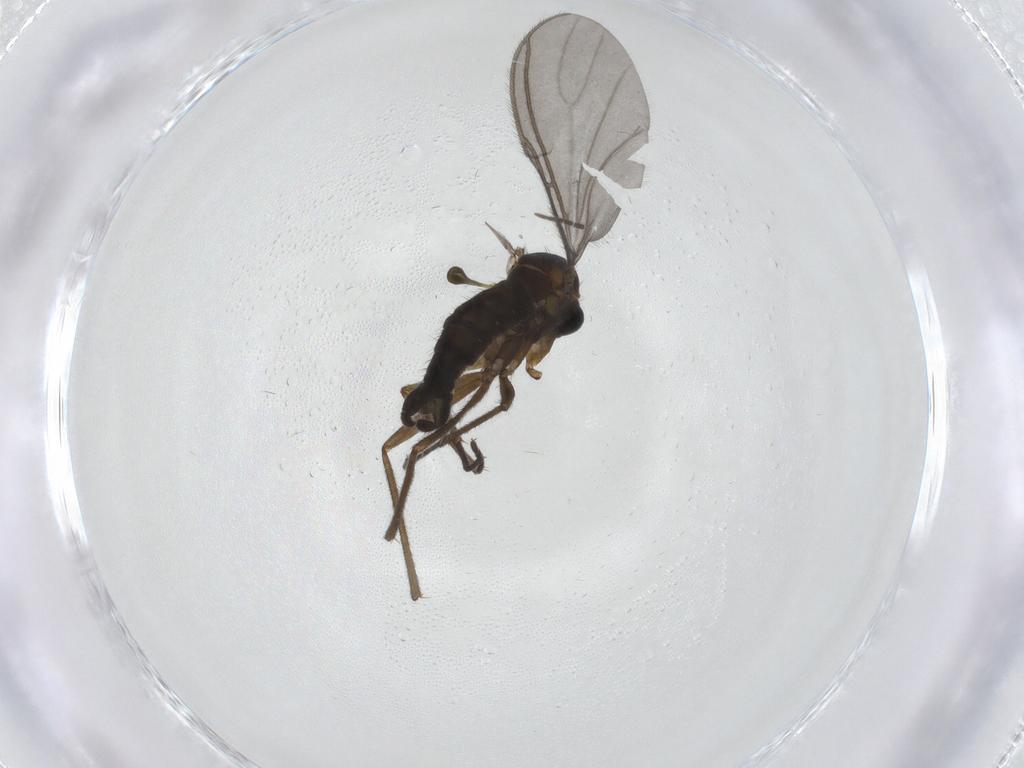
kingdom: Animalia
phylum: Arthropoda
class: Insecta
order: Diptera
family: Sciaridae
